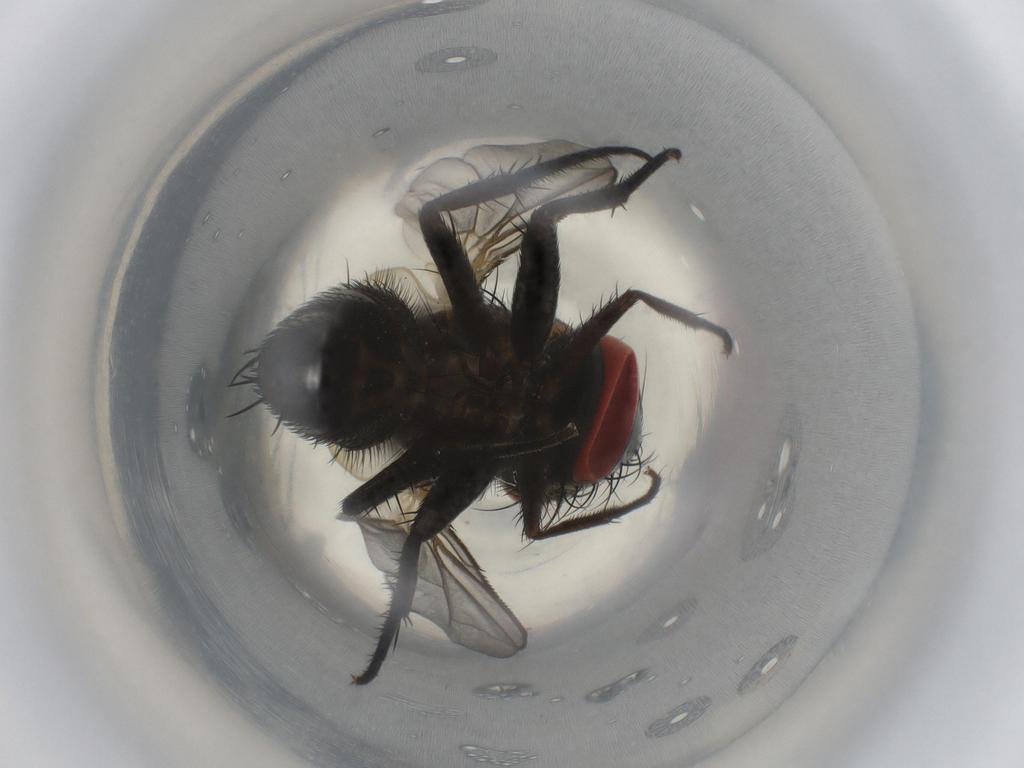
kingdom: Animalia
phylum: Arthropoda
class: Insecta
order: Diptera
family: Sarcophagidae
